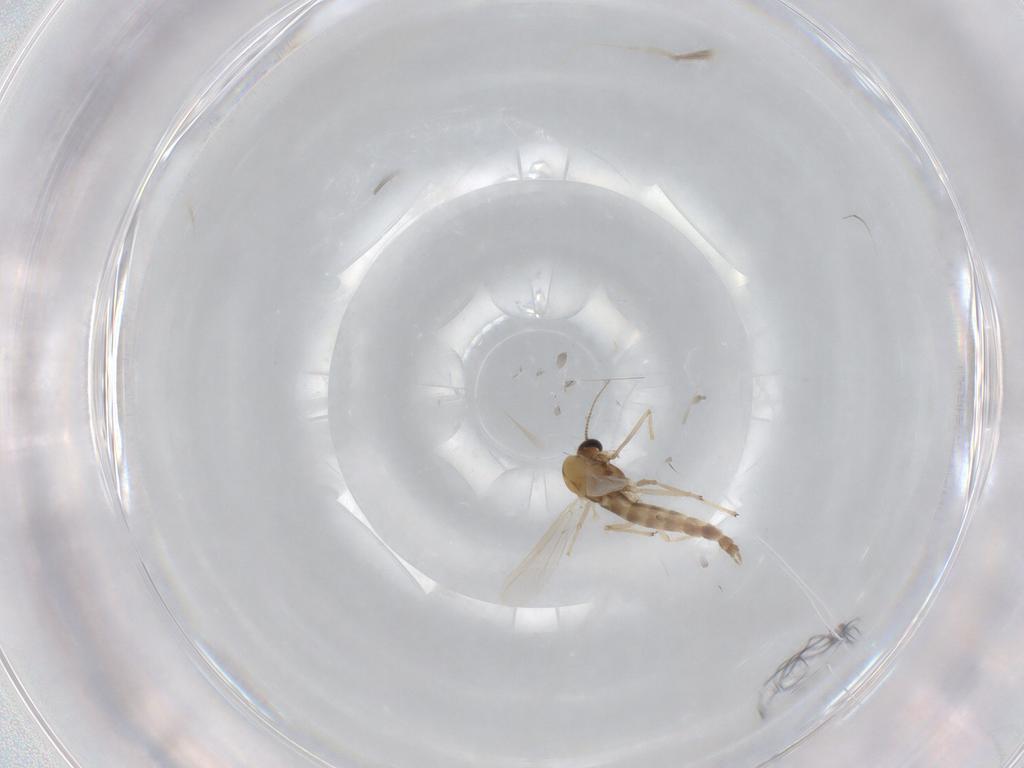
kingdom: Animalia
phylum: Arthropoda
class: Insecta
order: Diptera
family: Chironomidae
